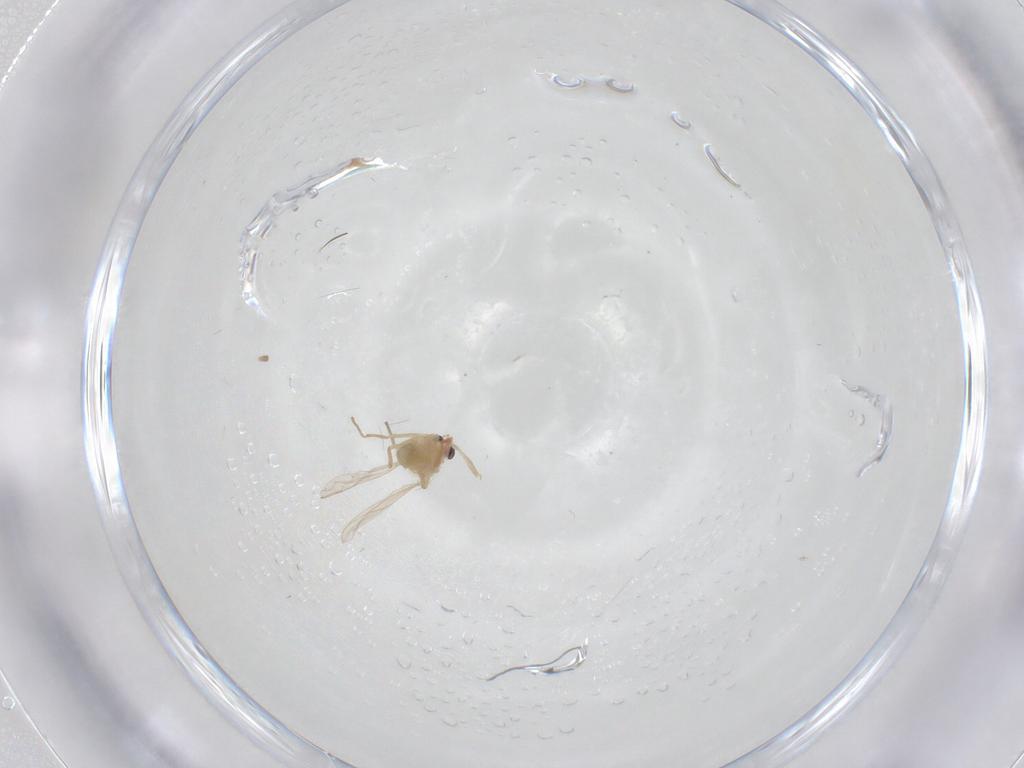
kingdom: Animalia
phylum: Arthropoda
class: Insecta
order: Diptera
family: Chironomidae
